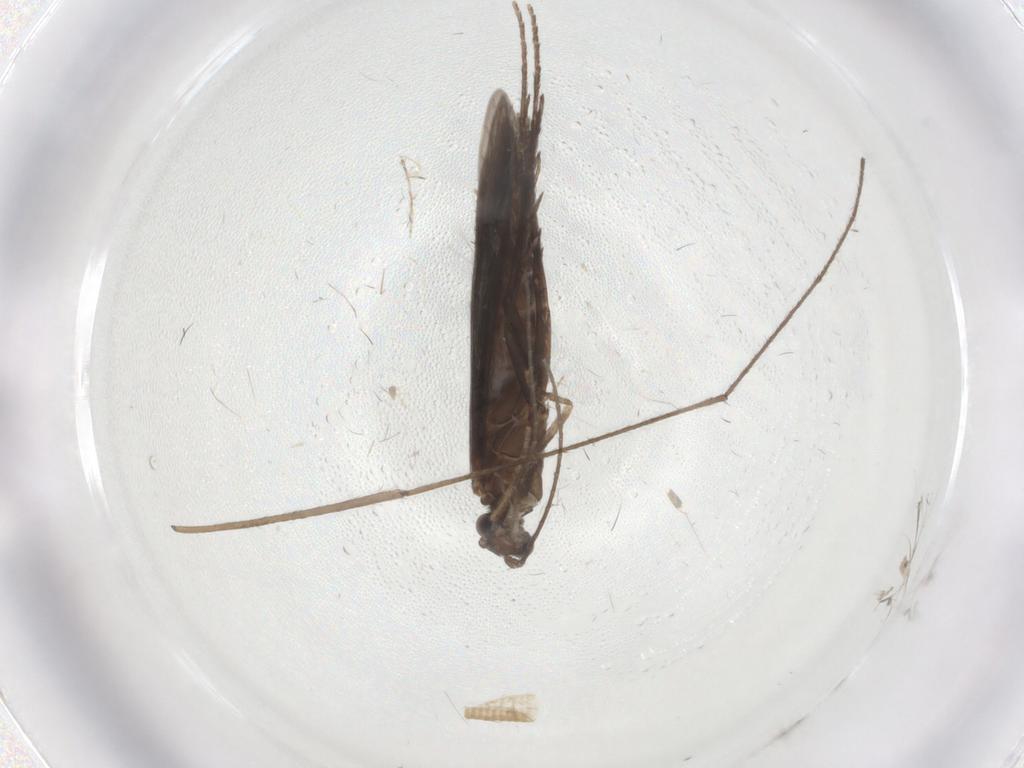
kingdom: Animalia
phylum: Arthropoda
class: Insecta
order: Trichoptera
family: Xiphocentronidae
